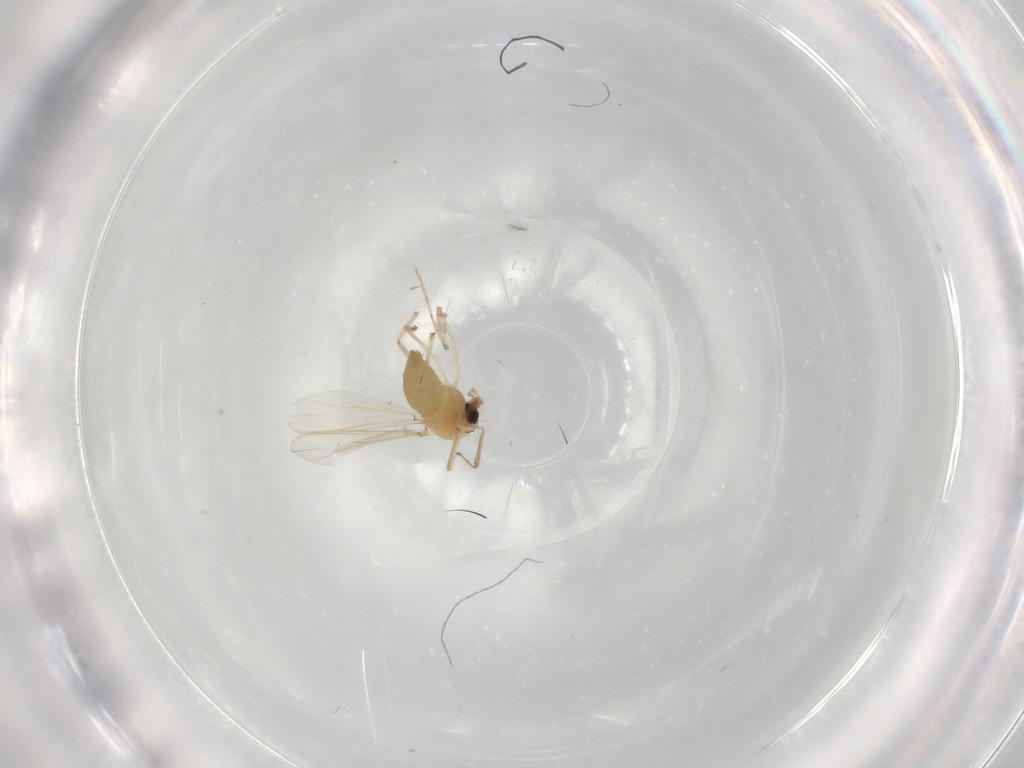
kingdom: Animalia
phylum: Arthropoda
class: Insecta
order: Diptera
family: Chironomidae
